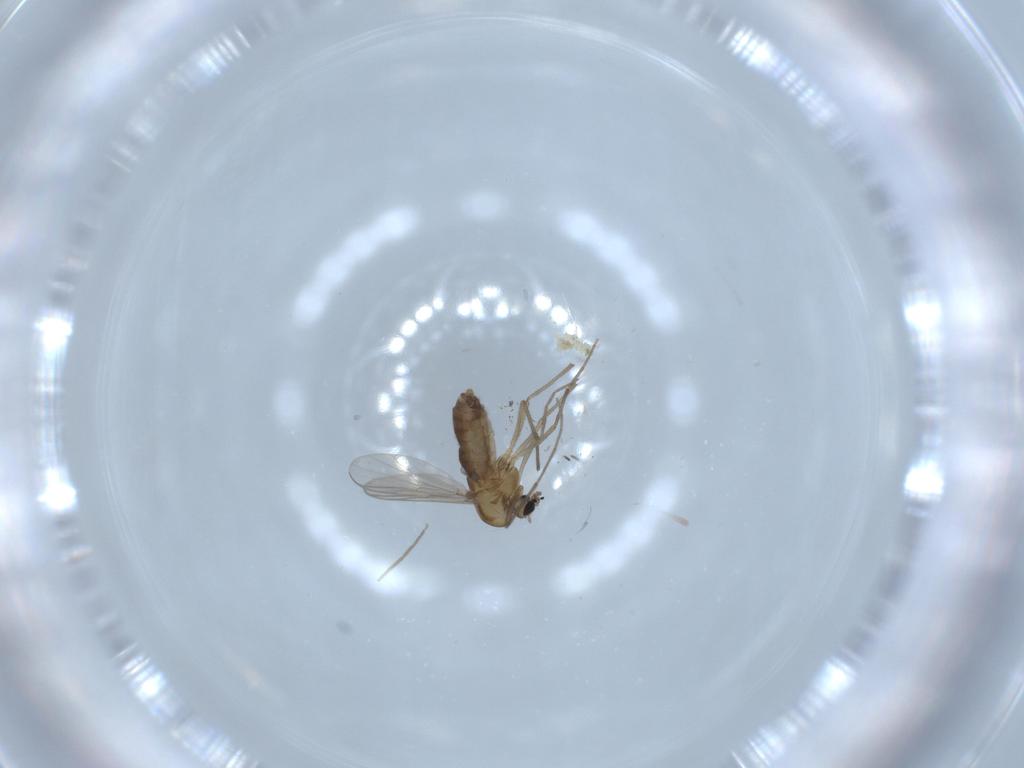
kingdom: Animalia
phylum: Arthropoda
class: Insecta
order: Diptera
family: Chironomidae
